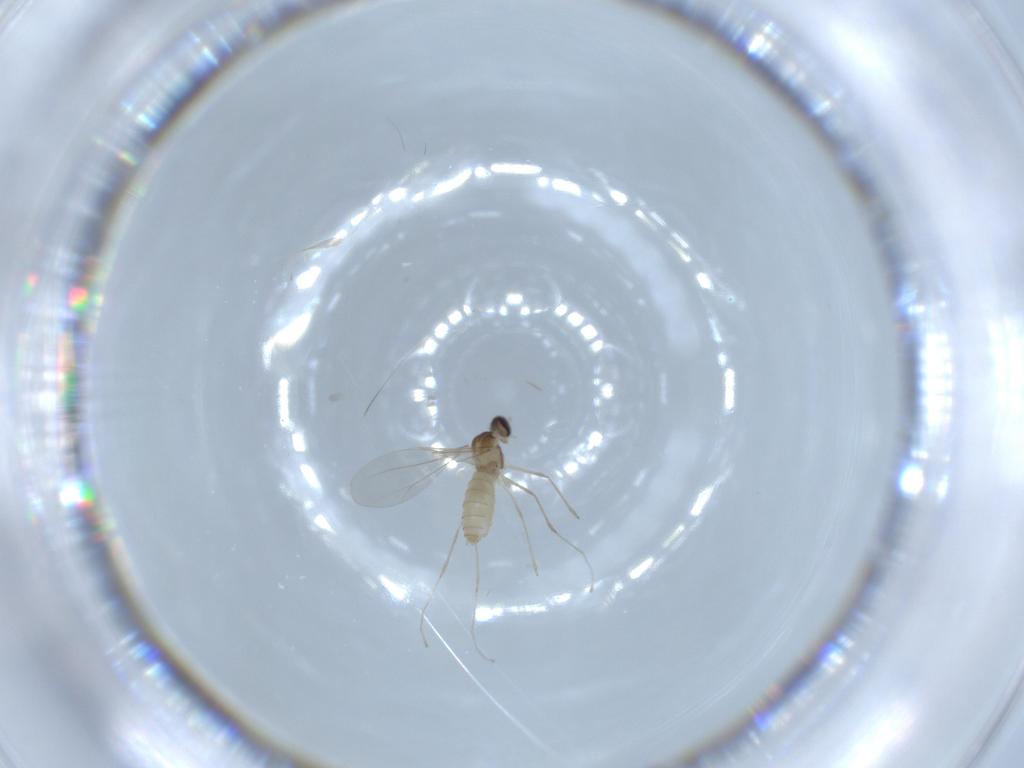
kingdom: Animalia
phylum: Arthropoda
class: Insecta
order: Diptera
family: Cecidomyiidae
